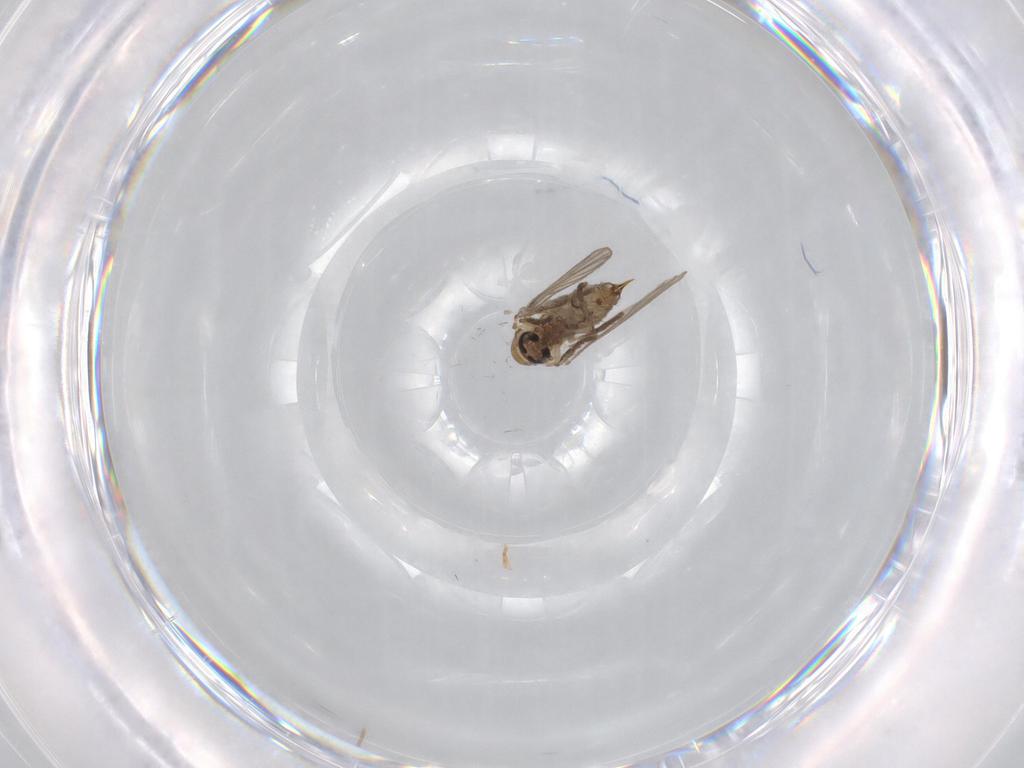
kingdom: Animalia
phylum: Arthropoda
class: Insecta
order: Diptera
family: Psychodidae
